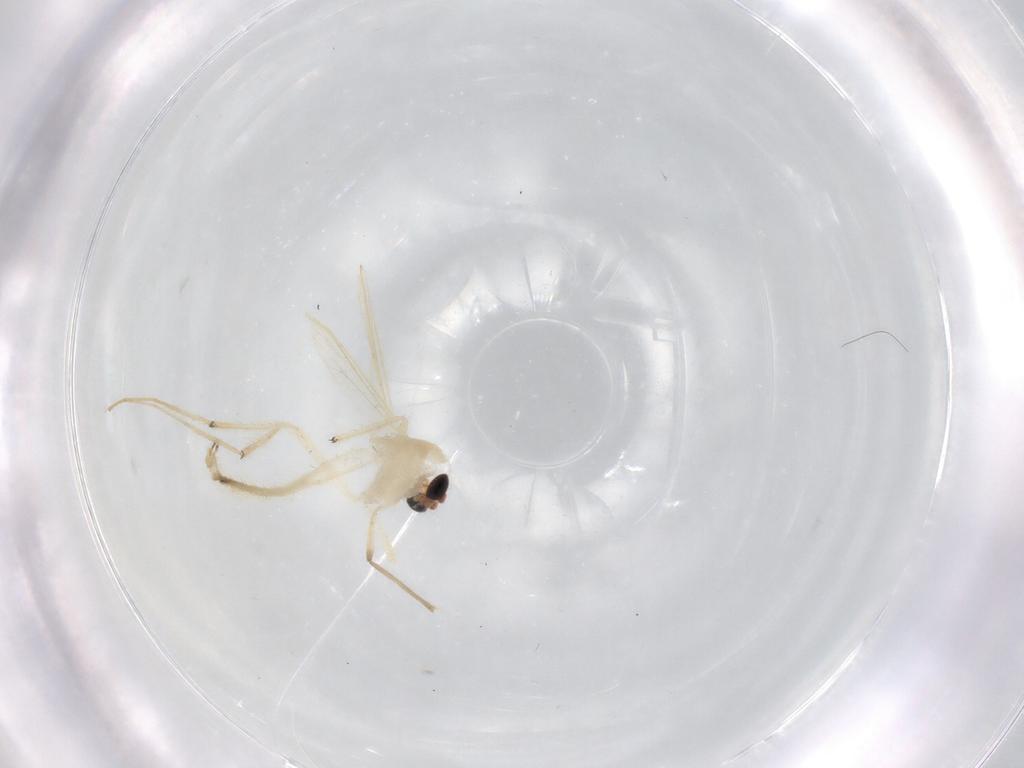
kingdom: Animalia
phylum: Arthropoda
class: Insecta
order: Diptera
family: Chironomidae
